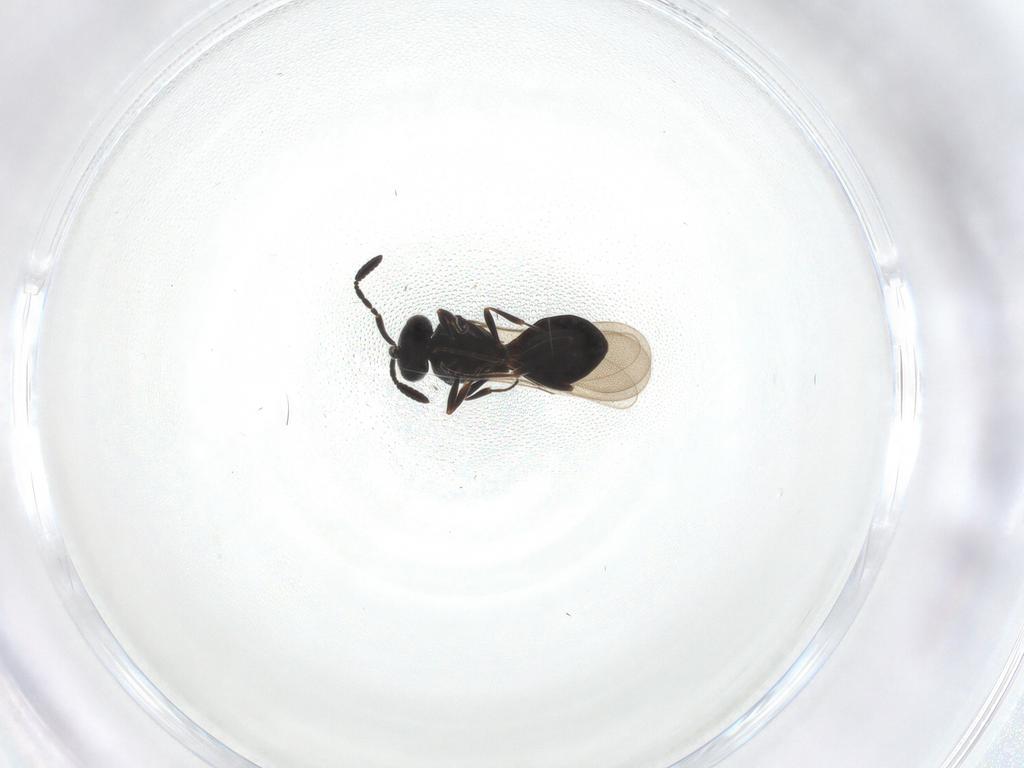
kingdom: Animalia
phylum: Arthropoda
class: Insecta
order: Hymenoptera
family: Scelionidae
